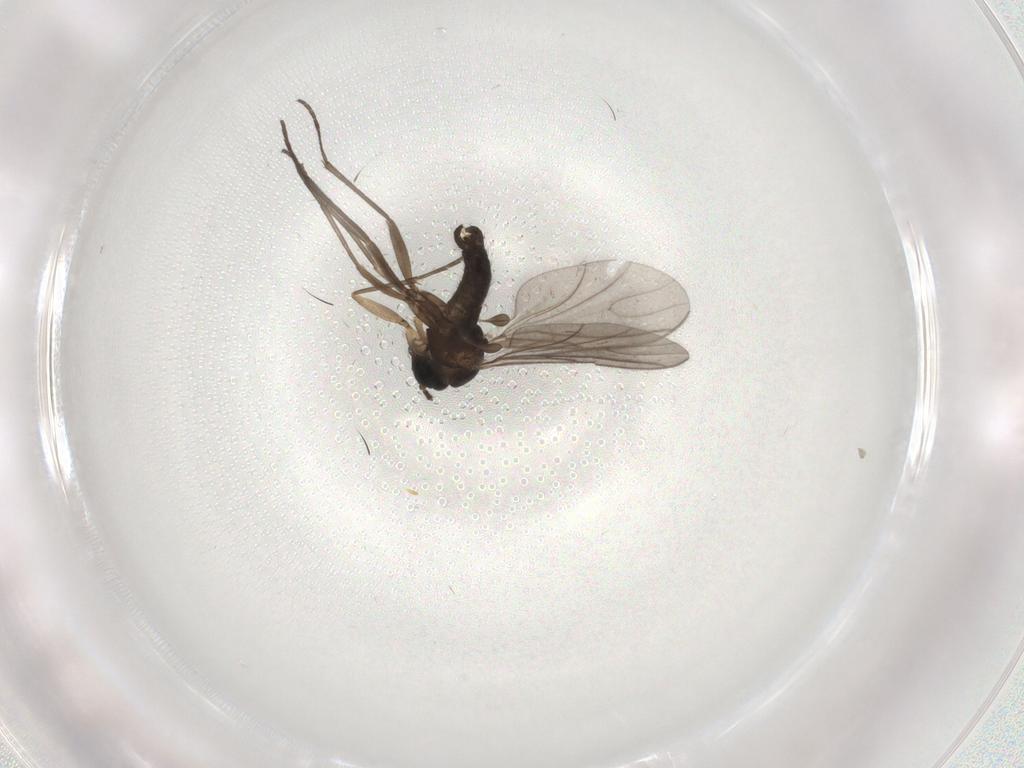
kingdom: Animalia
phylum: Arthropoda
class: Insecta
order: Diptera
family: Sciaridae
